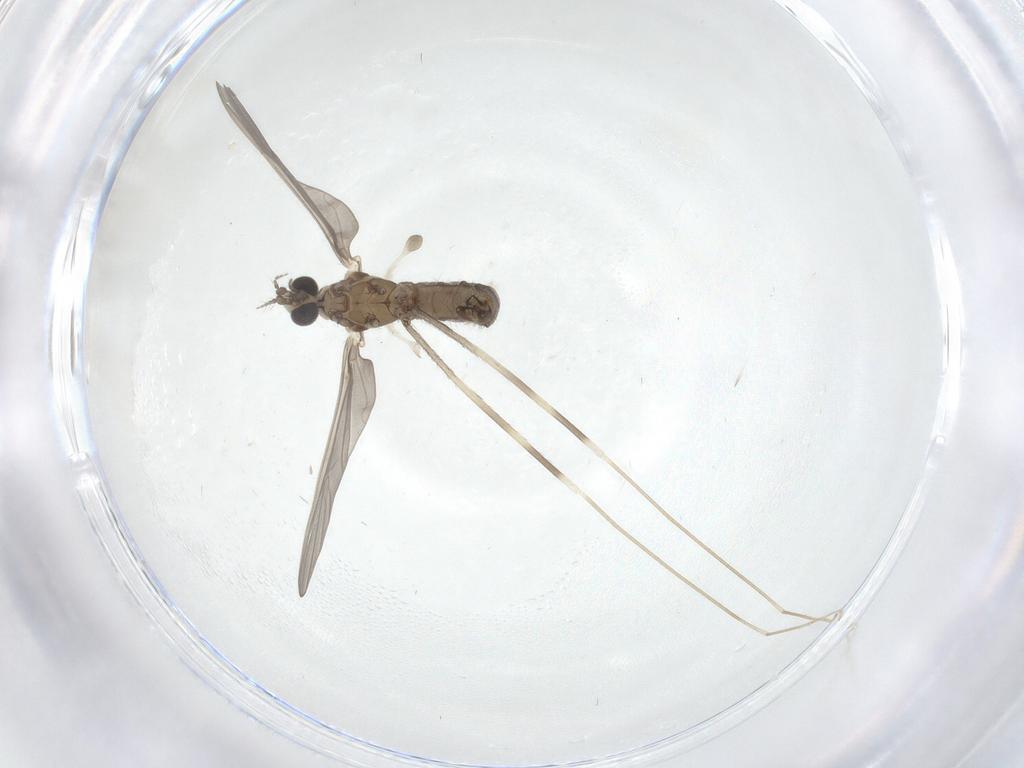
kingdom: Animalia
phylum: Arthropoda
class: Insecta
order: Diptera
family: Limoniidae
